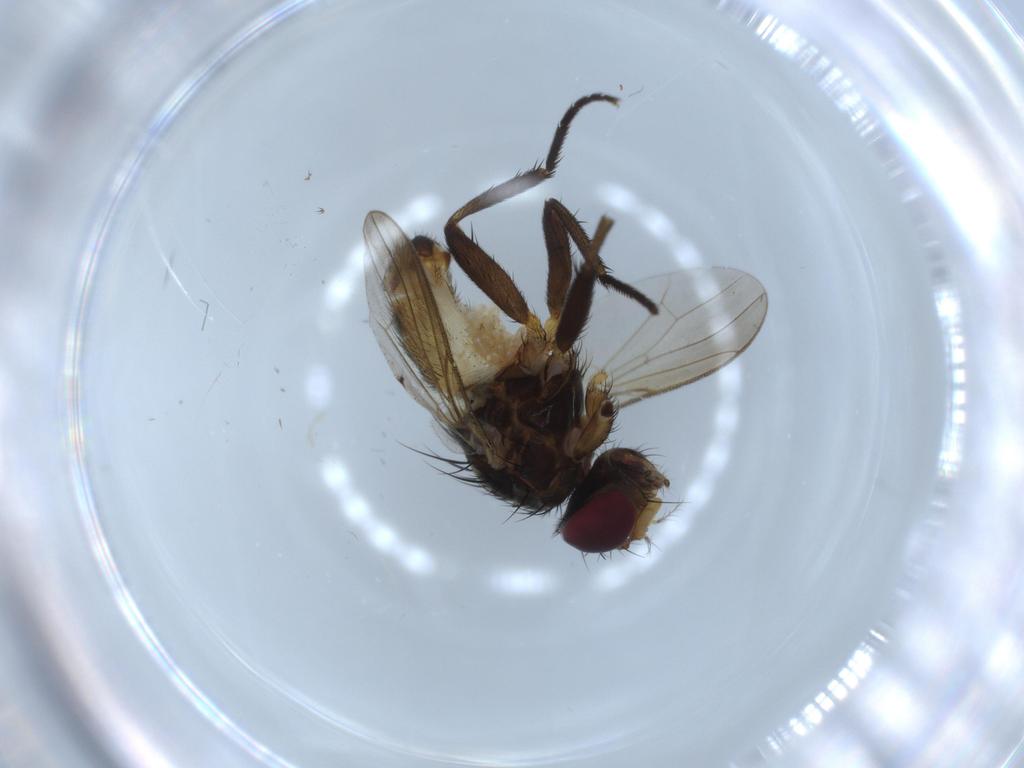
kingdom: Animalia
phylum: Arthropoda
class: Insecta
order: Diptera
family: Anthomyiidae
